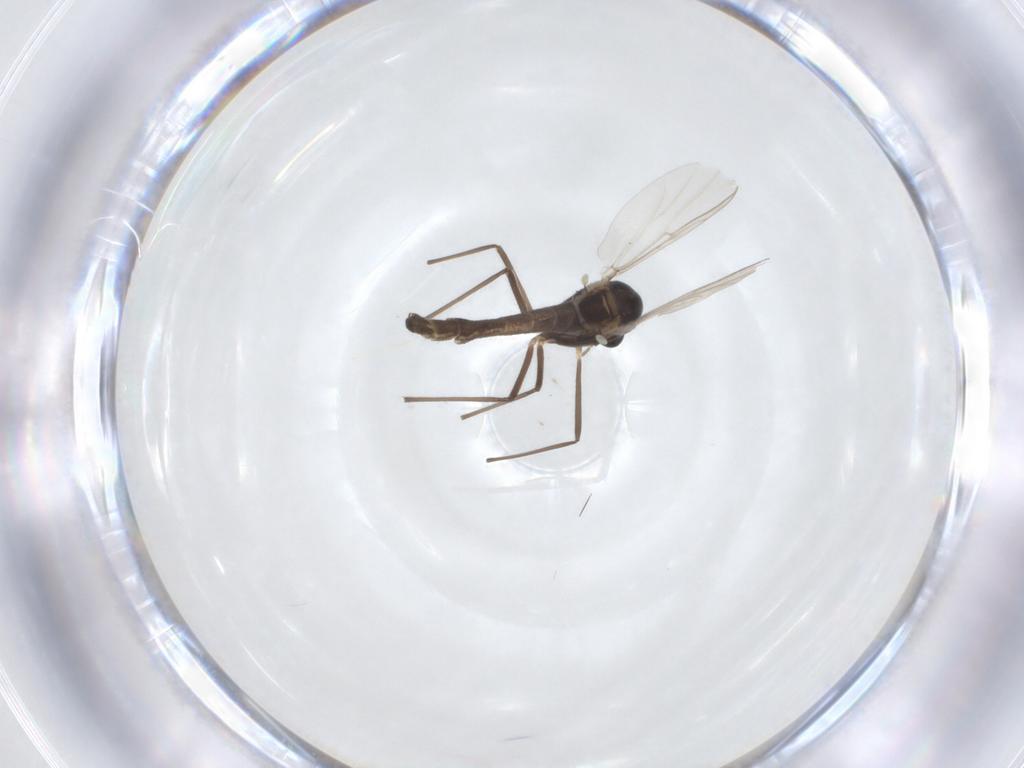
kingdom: Animalia
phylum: Arthropoda
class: Insecta
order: Diptera
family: Chironomidae
